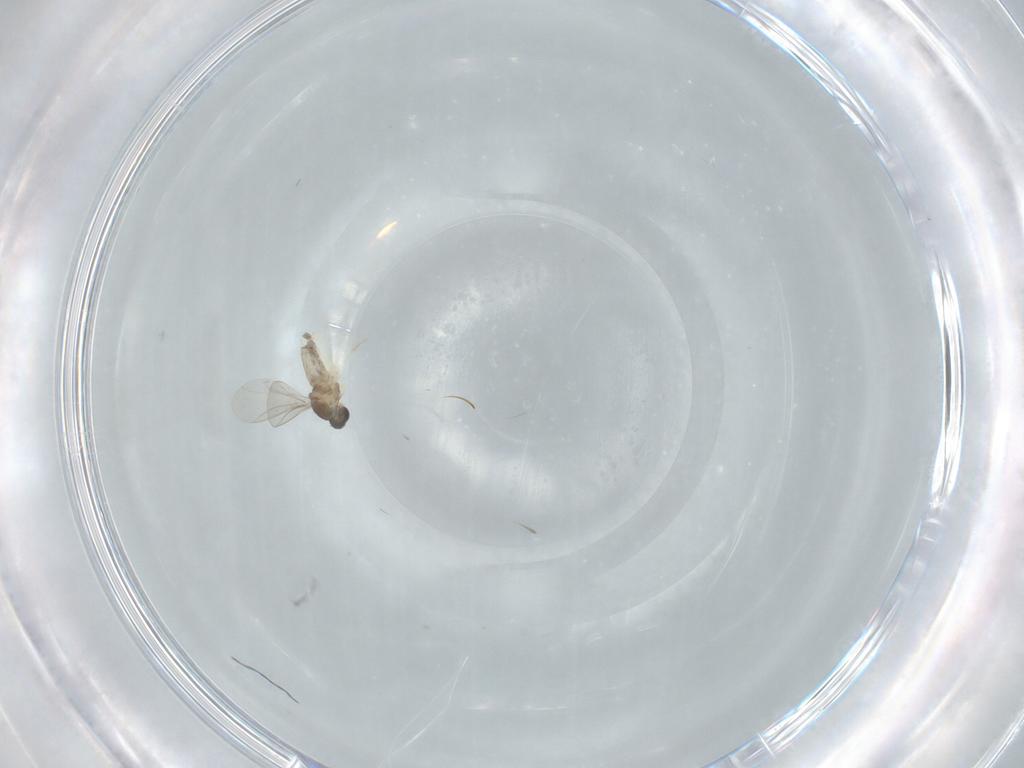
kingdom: Animalia
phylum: Arthropoda
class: Insecta
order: Diptera
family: Cecidomyiidae
